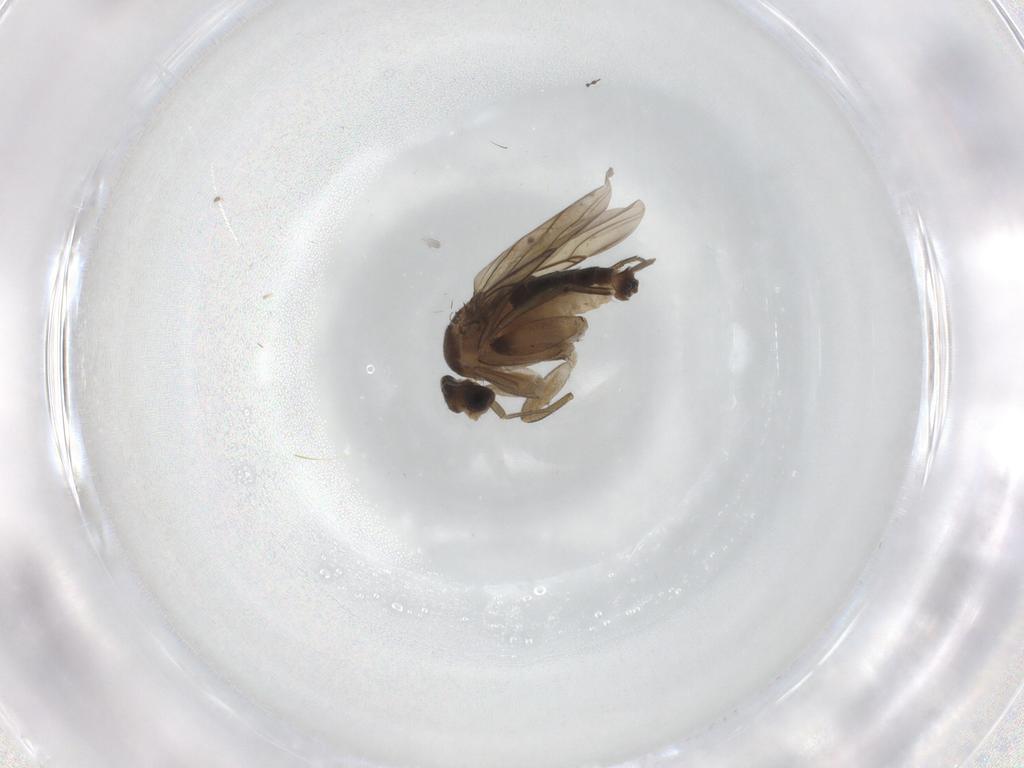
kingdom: Animalia
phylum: Arthropoda
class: Insecta
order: Diptera
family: Chironomidae
